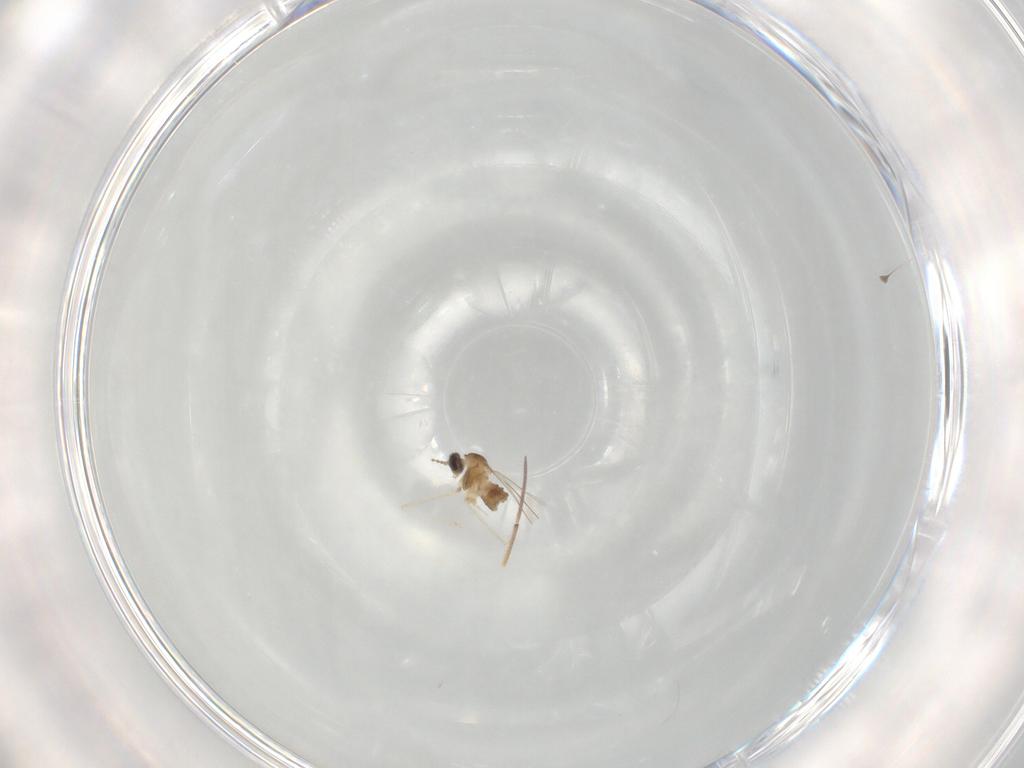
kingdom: Animalia
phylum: Arthropoda
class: Insecta
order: Diptera
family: Cecidomyiidae
